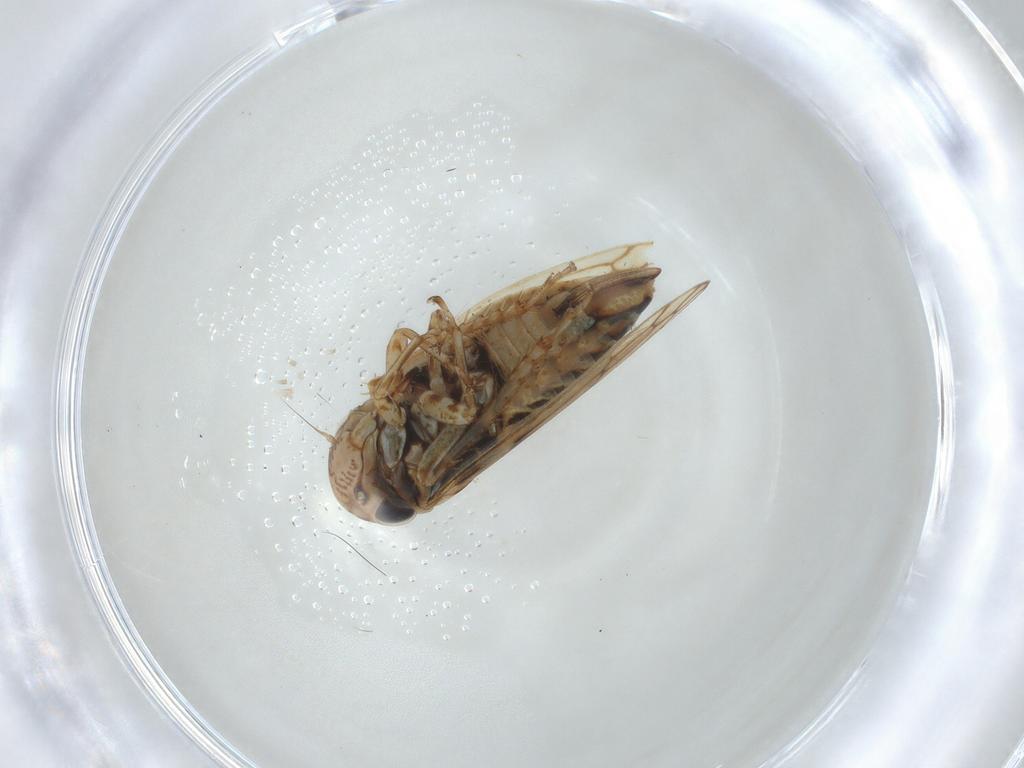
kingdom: Animalia
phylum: Arthropoda
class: Insecta
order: Hemiptera
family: Cicadellidae
